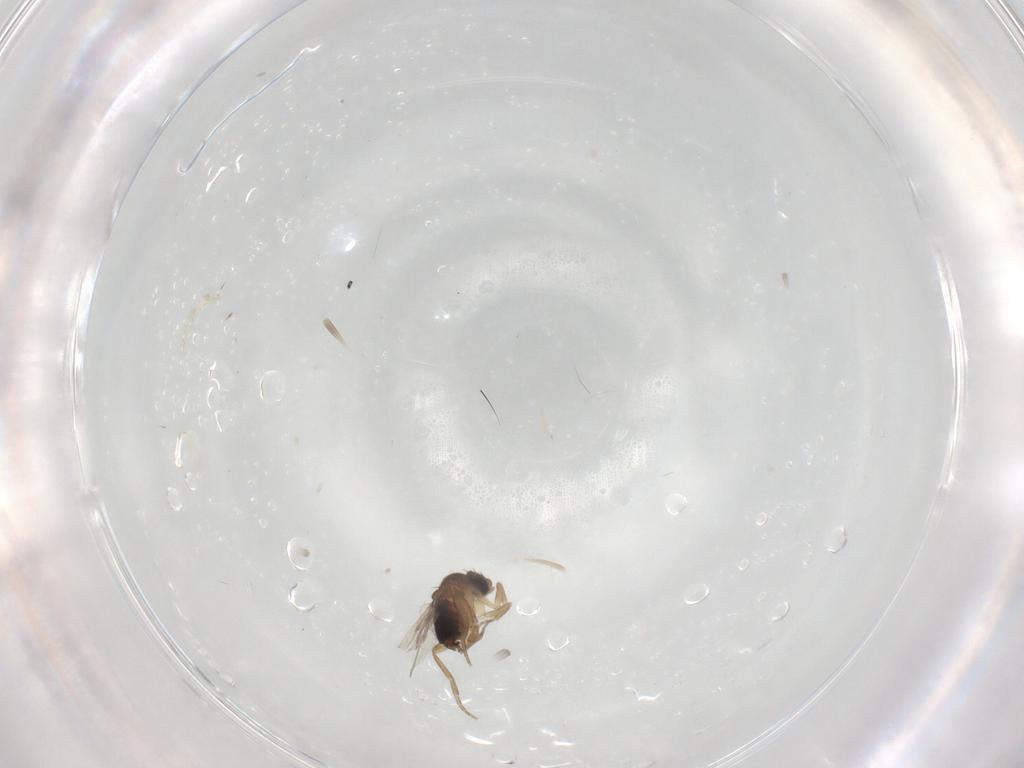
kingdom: Animalia
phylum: Arthropoda
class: Insecta
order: Diptera
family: Phoridae
